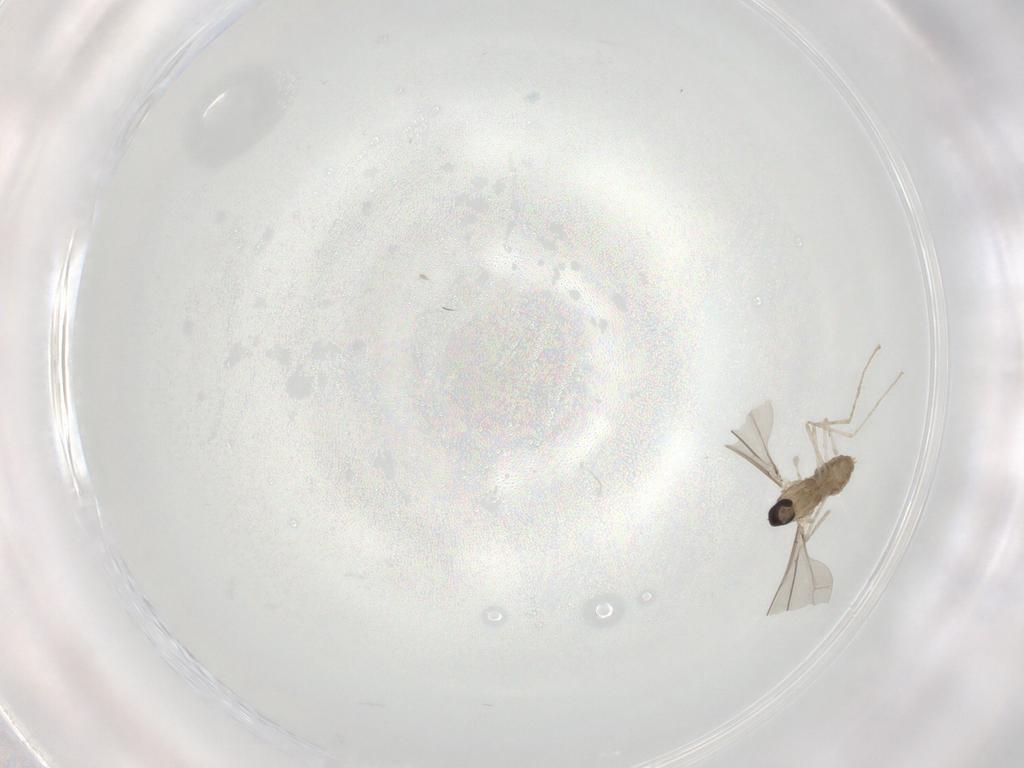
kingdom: Animalia
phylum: Arthropoda
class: Insecta
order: Diptera
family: Cecidomyiidae
